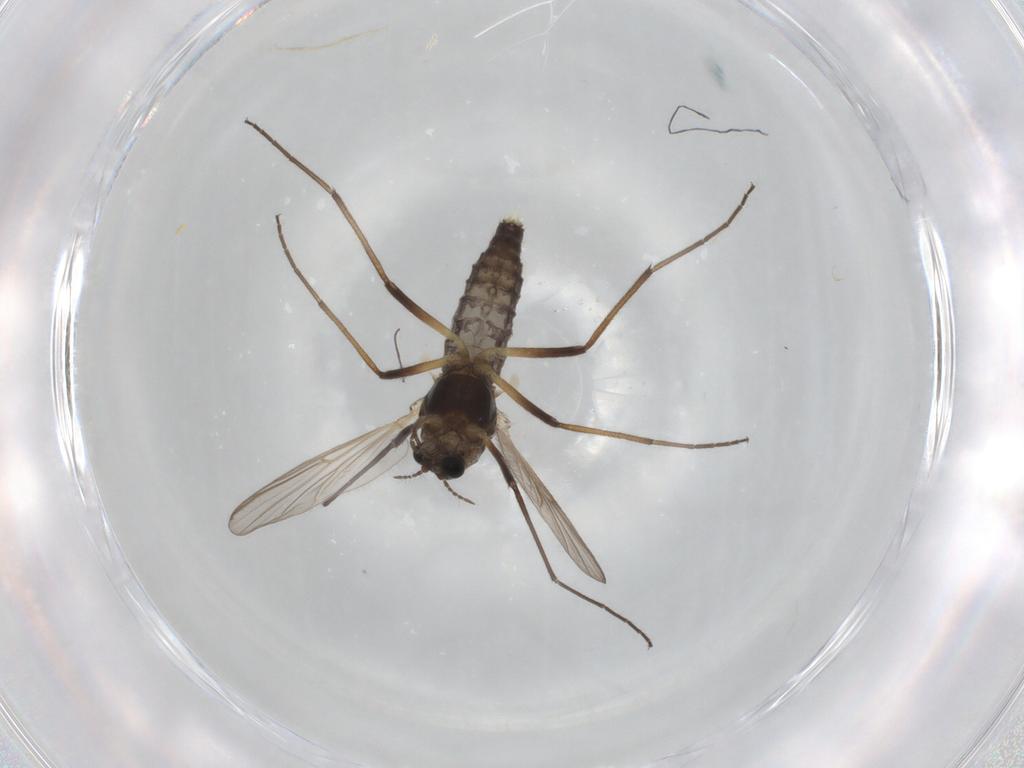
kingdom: Animalia
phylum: Arthropoda
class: Insecta
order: Diptera
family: Chironomidae
